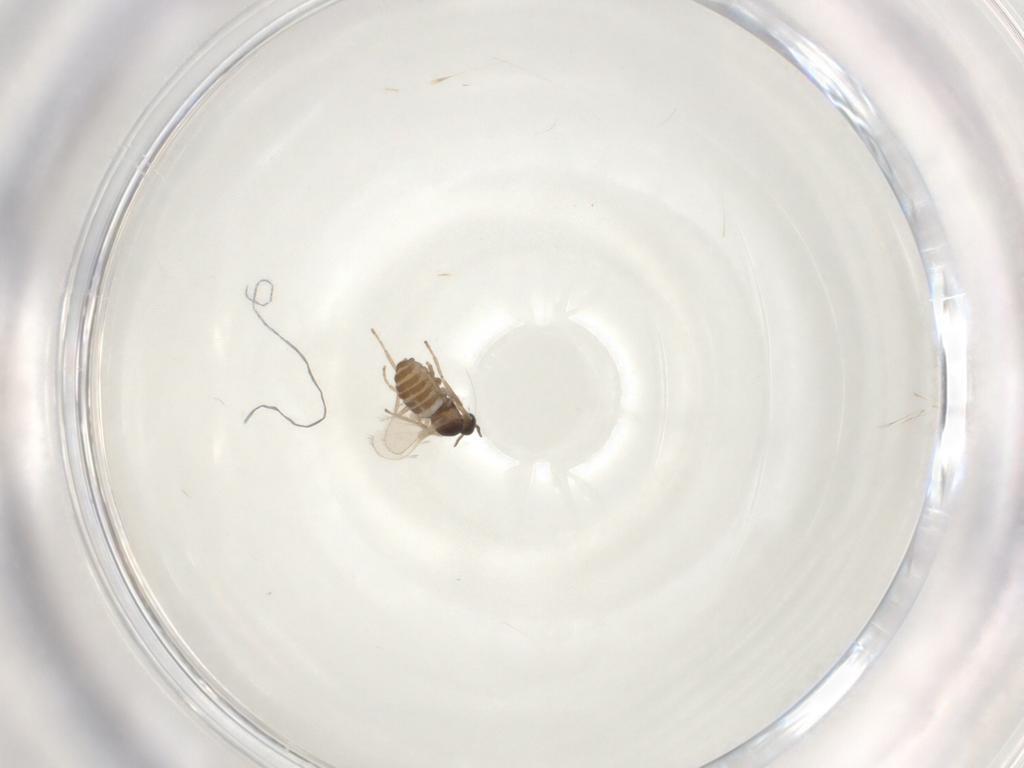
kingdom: Animalia
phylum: Arthropoda
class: Insecta
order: Diptera
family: Cecidomyiidae
